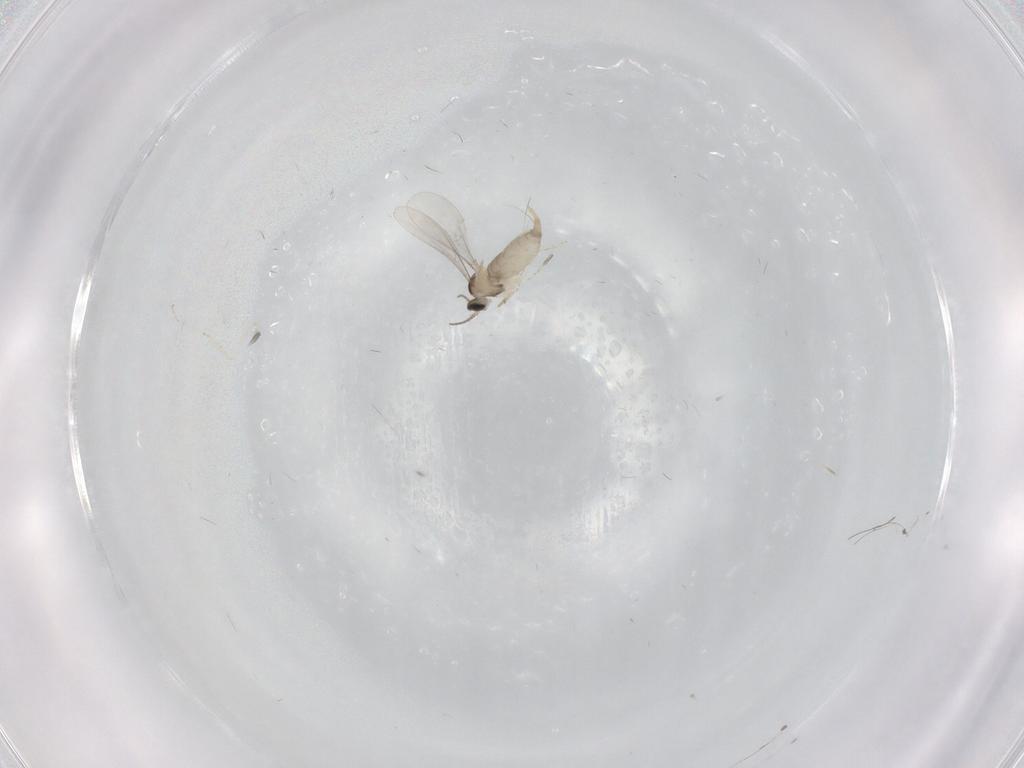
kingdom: Animalia
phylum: Arthropoda
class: Insecta
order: Diptera
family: Cecidomyiidae
